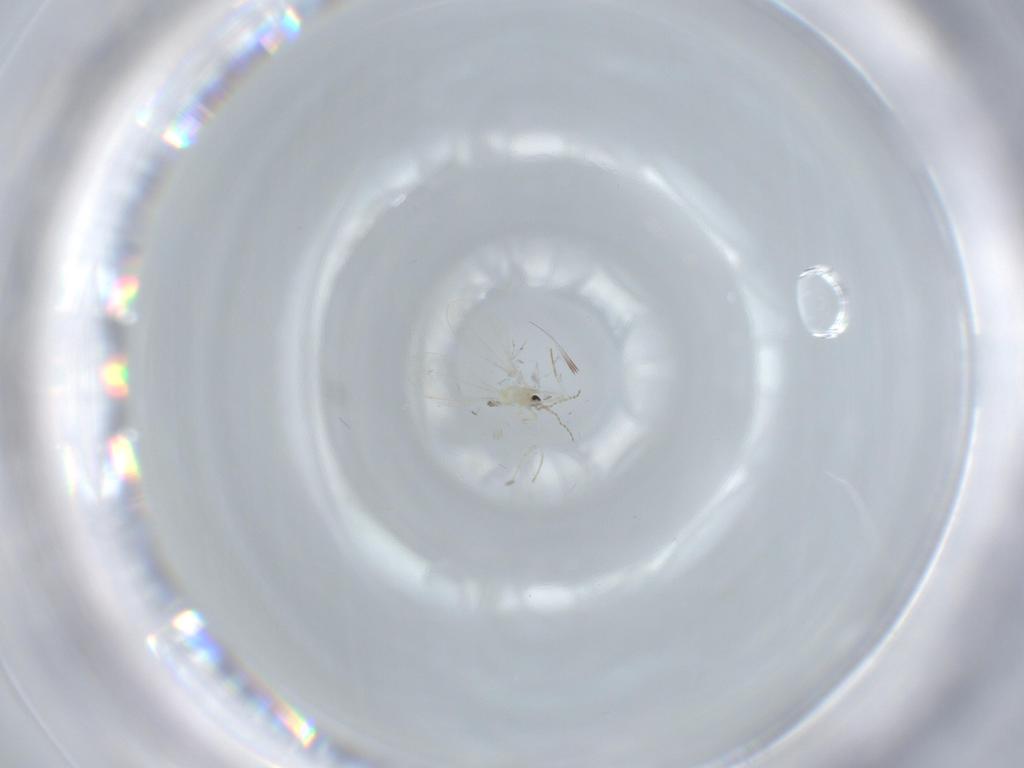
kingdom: Animalia
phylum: Arthropoda
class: Insecta
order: Diptera
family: Cecidomyiidae
